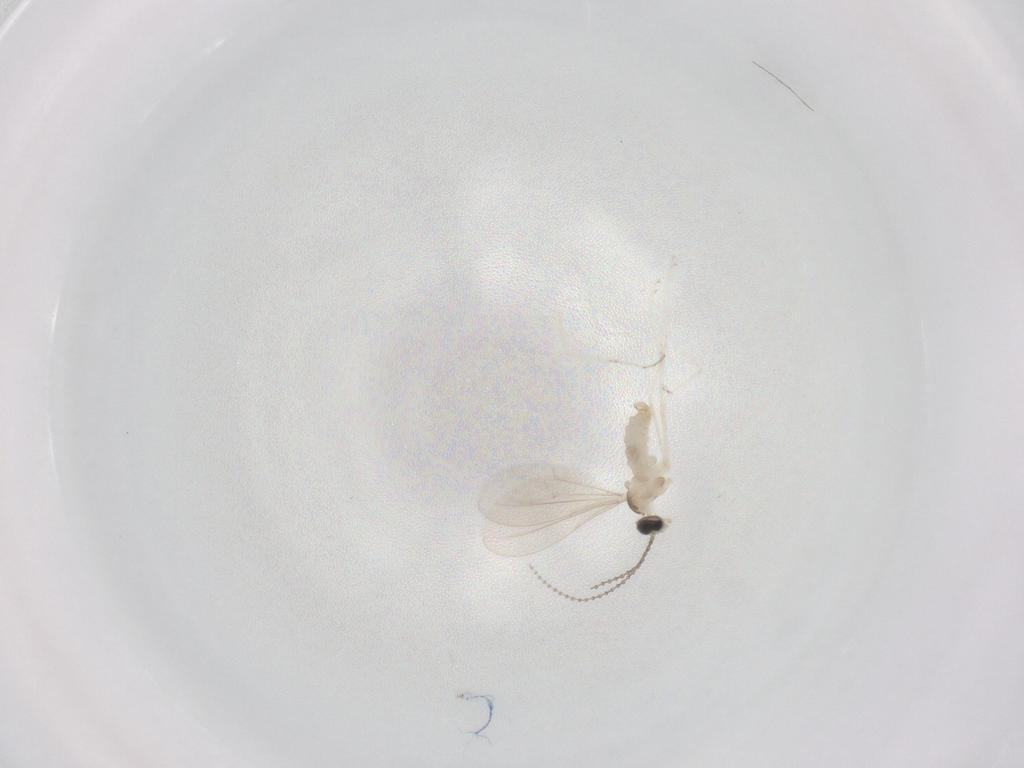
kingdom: Animalia
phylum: Arthropoda
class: Insecta
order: Diptera
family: Cecidomyiidae
